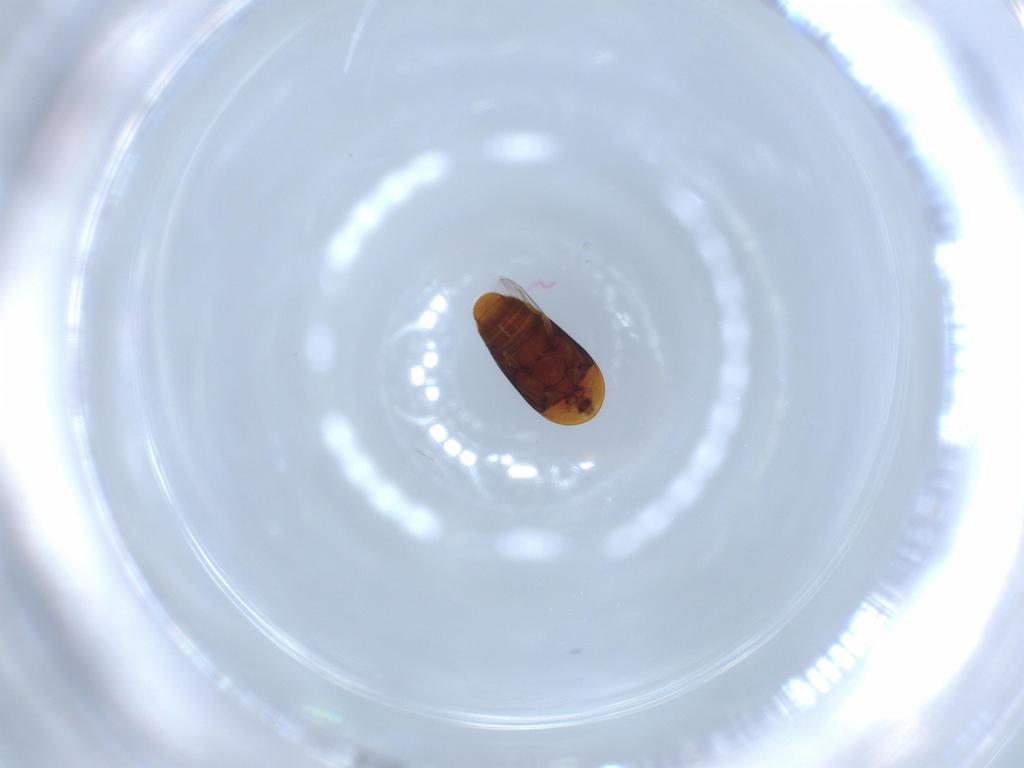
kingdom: Animalia
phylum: Arthropoda
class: Insecta
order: Coleoptera
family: Corylophidae
